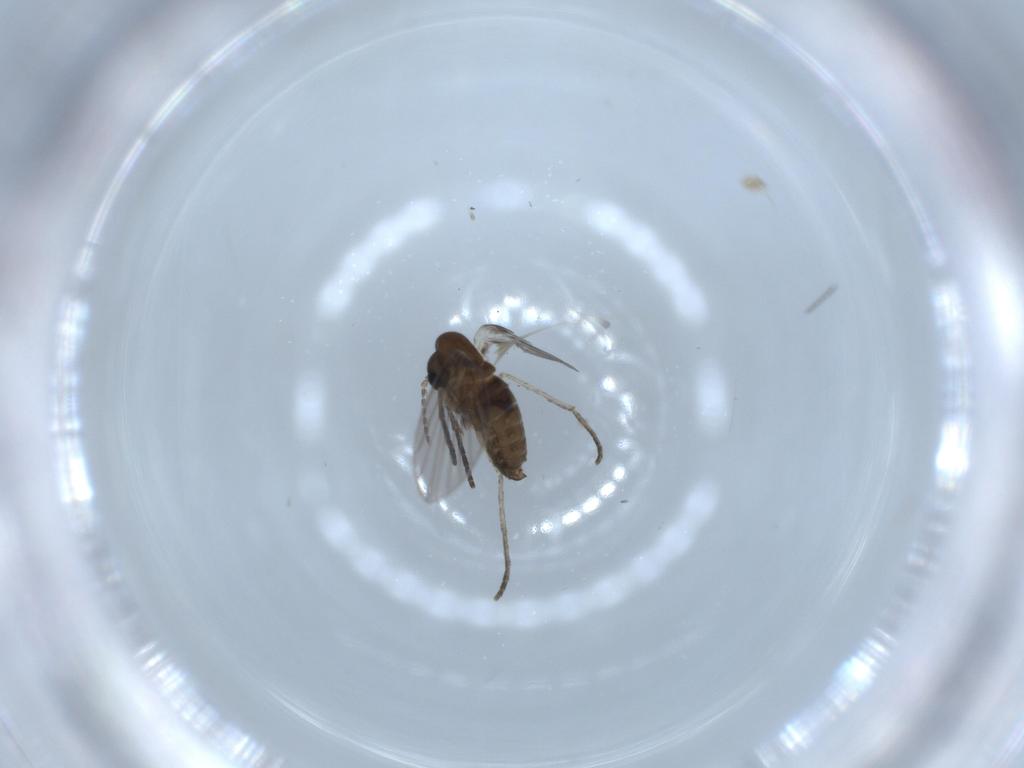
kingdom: Animalia
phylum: Arthropoda
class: Insecta
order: Diptera
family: Psychodidae
